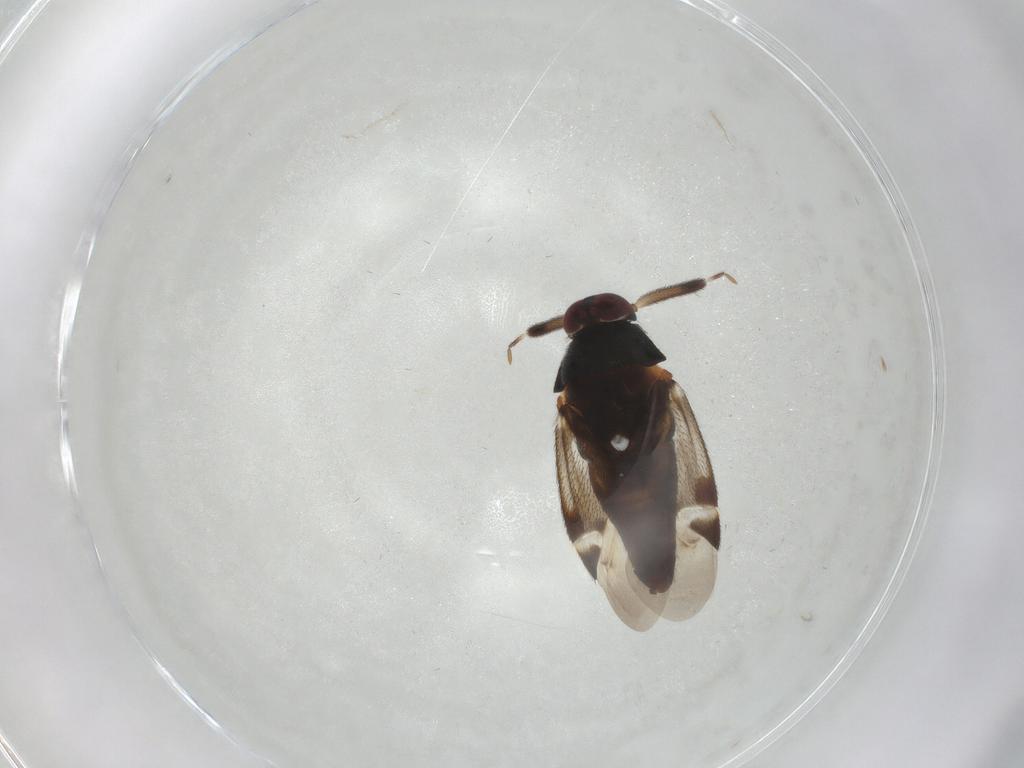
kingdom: Animalia
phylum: Arthropoda
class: Insecta
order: Hemiptera
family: Miridae
